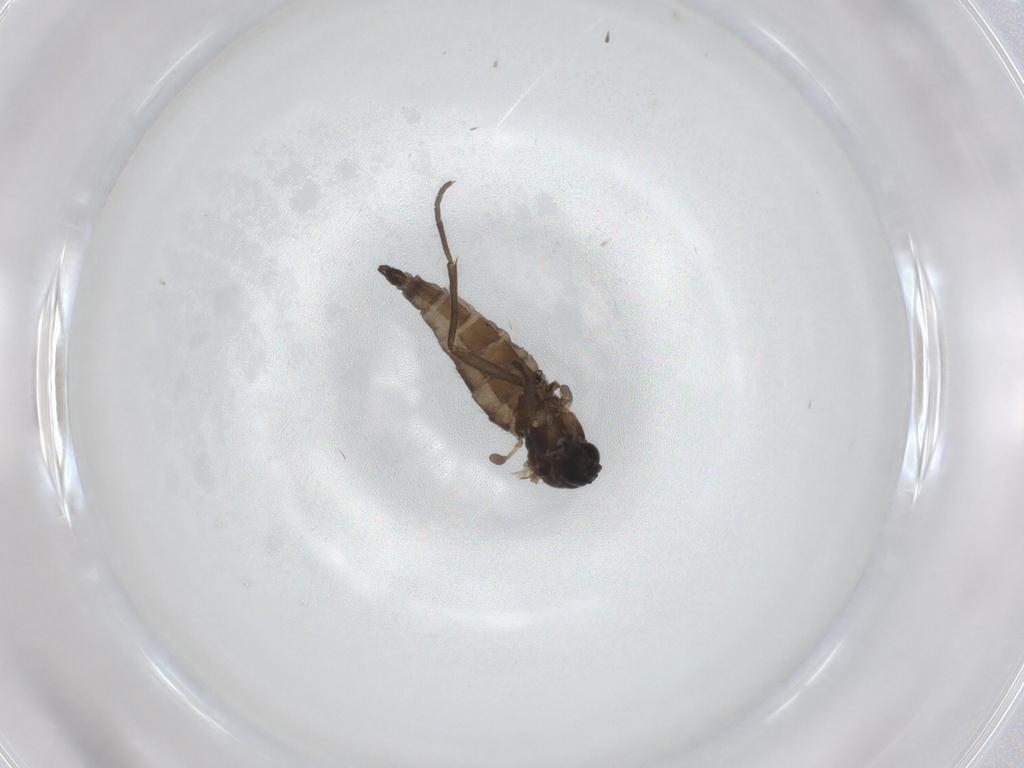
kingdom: Animalia
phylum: Arthropoda
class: Insecta
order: Diptera
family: Sciaridae
